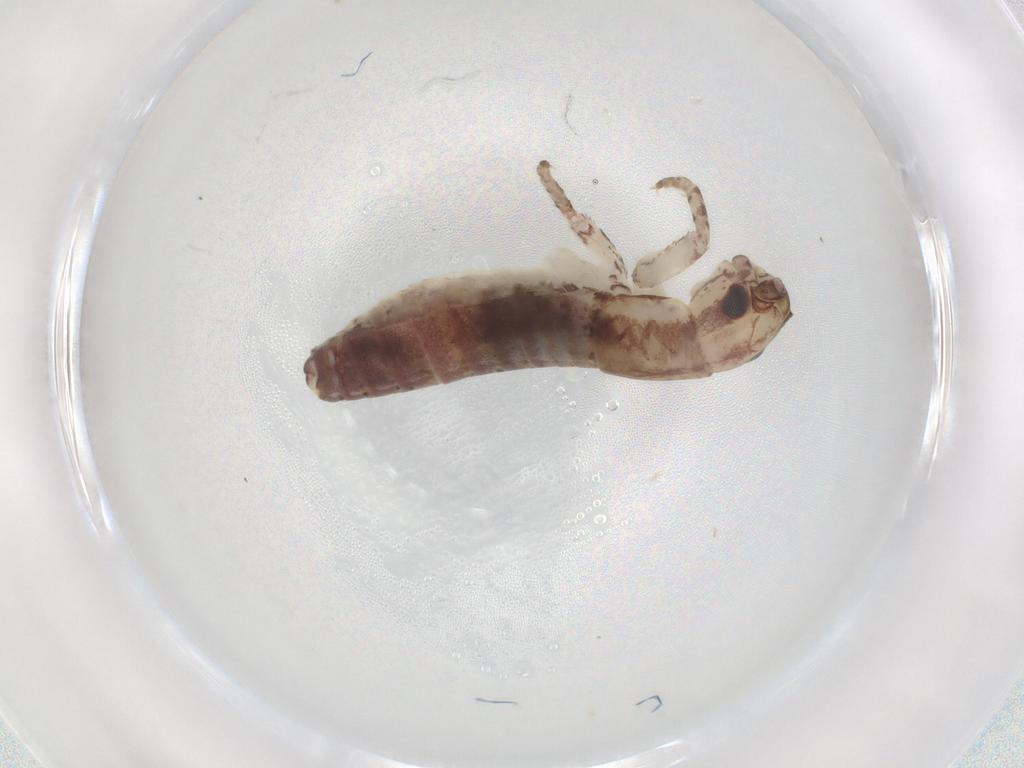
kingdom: Animalia
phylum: Arthropoda
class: Insecta
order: Orthoptera
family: Mogoplistidae
